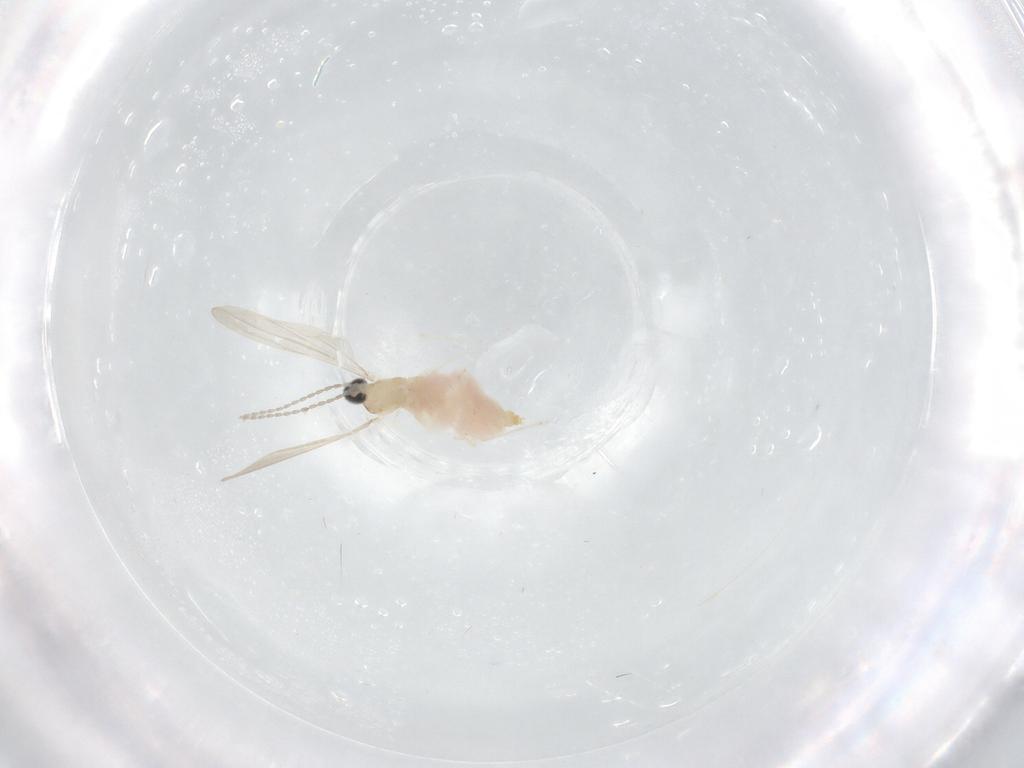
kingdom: Animalia
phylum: Arthropoda
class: Insecta
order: Diptera
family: Cecidomyiidae
